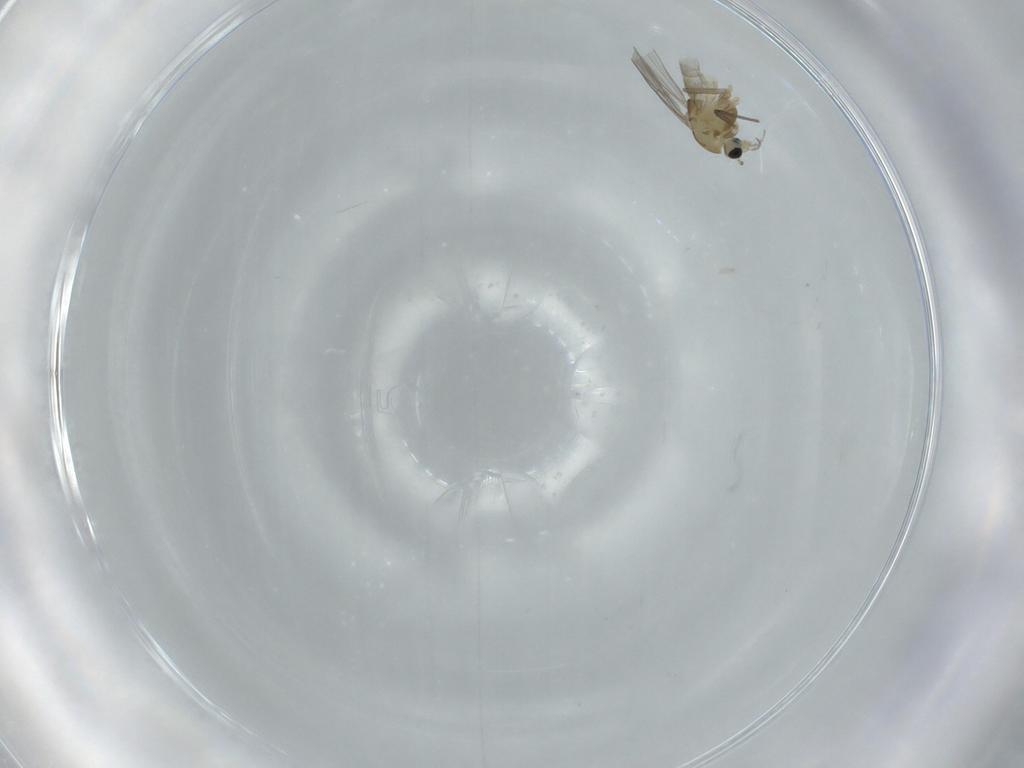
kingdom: Animalia
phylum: Arthropoda
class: Insecta
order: Diptera
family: Sciaridae
